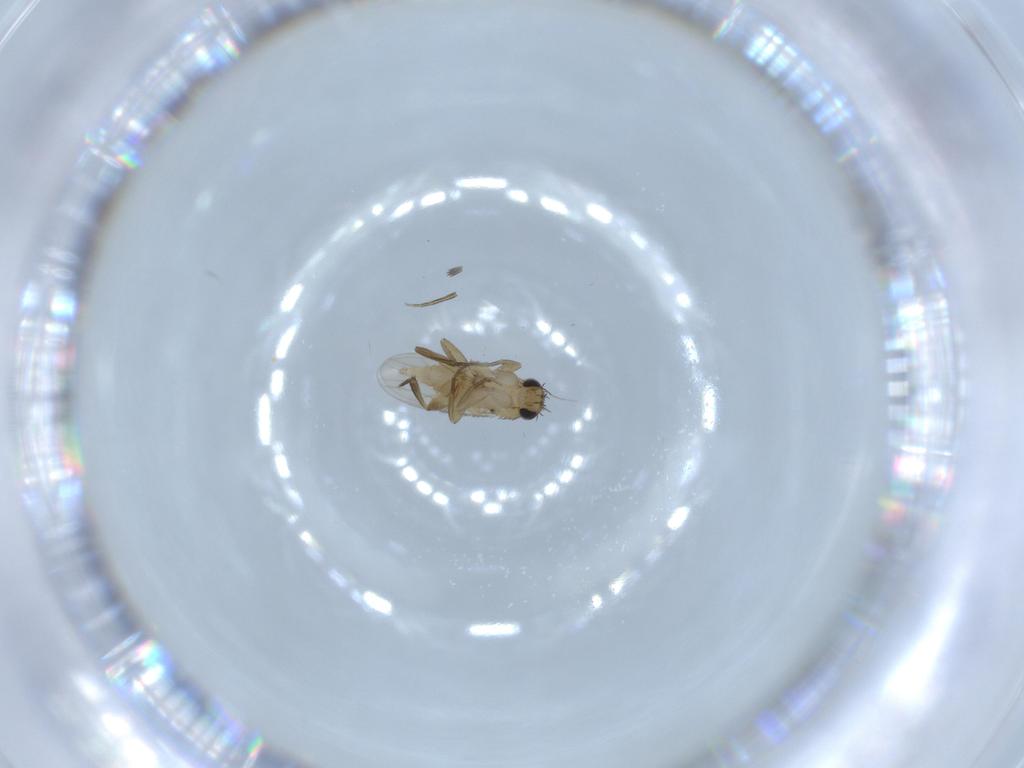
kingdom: Animalia
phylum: Arthropoda
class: Insecta
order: Diptera
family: Phoridae
